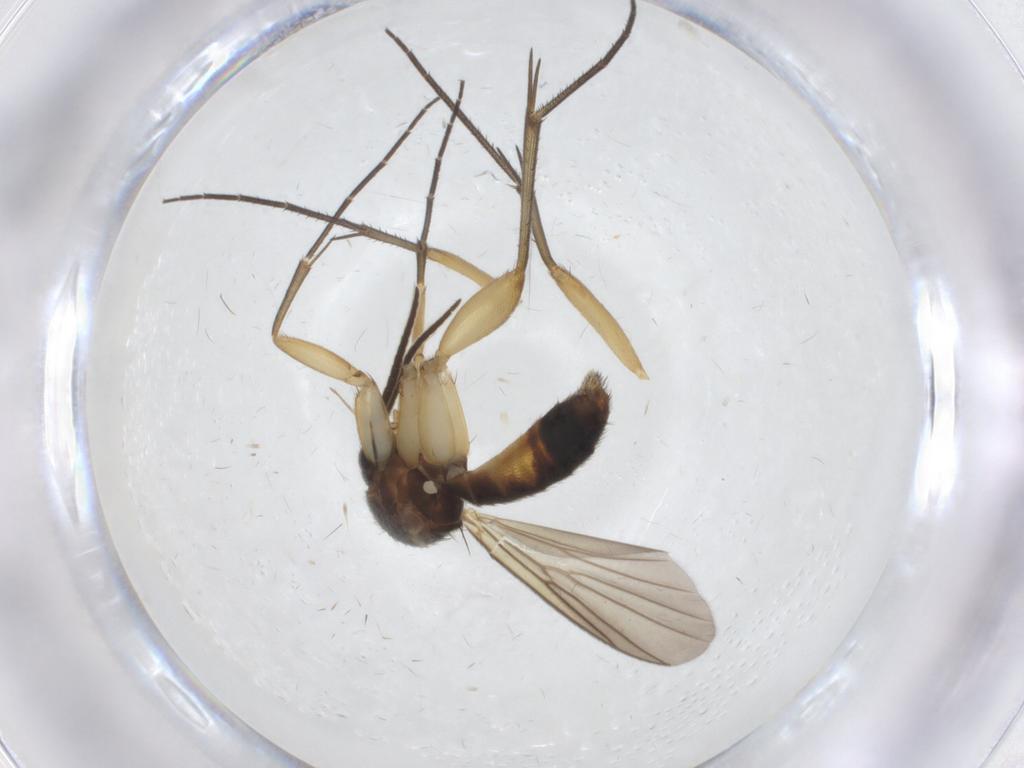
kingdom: Animalia
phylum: Arthropoda
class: Insecta
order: Diptera
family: Mycetophilidae
